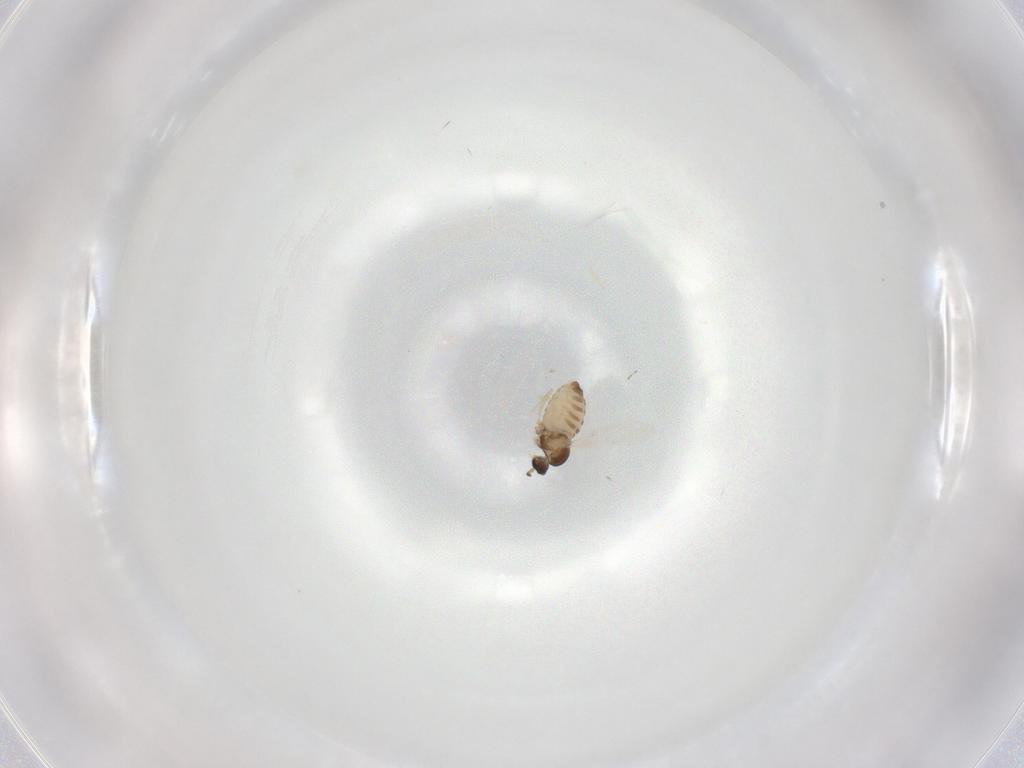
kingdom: Animalia
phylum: Arthropoda
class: Insecta
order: Diptera
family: Cecidomyiidae
